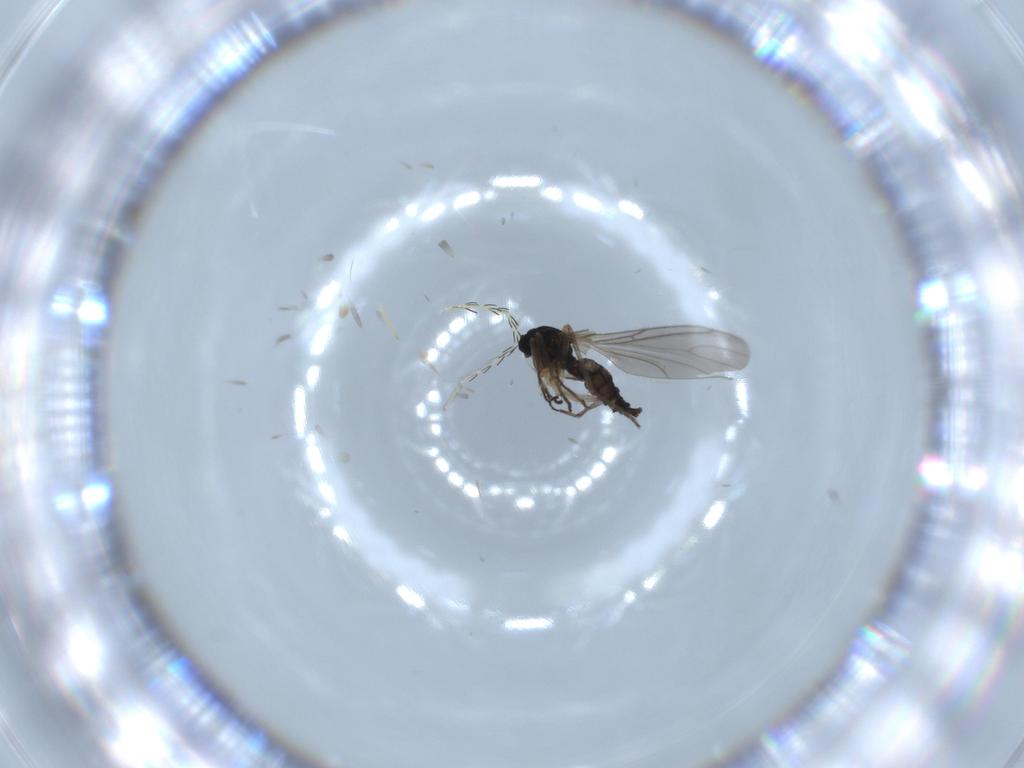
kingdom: Animalia
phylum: Arthropoda
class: Insecta
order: Diptera
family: Sciaridae
